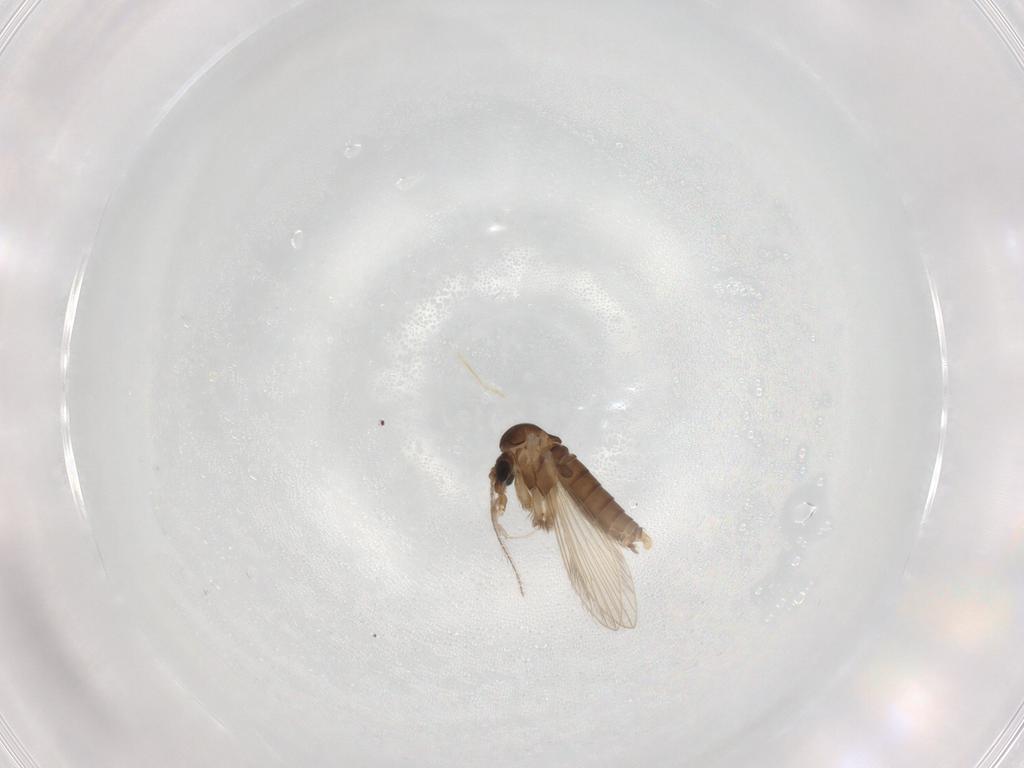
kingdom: Animalia
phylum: Arthropoda
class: Insecta
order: Diptera
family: Psychodidae
